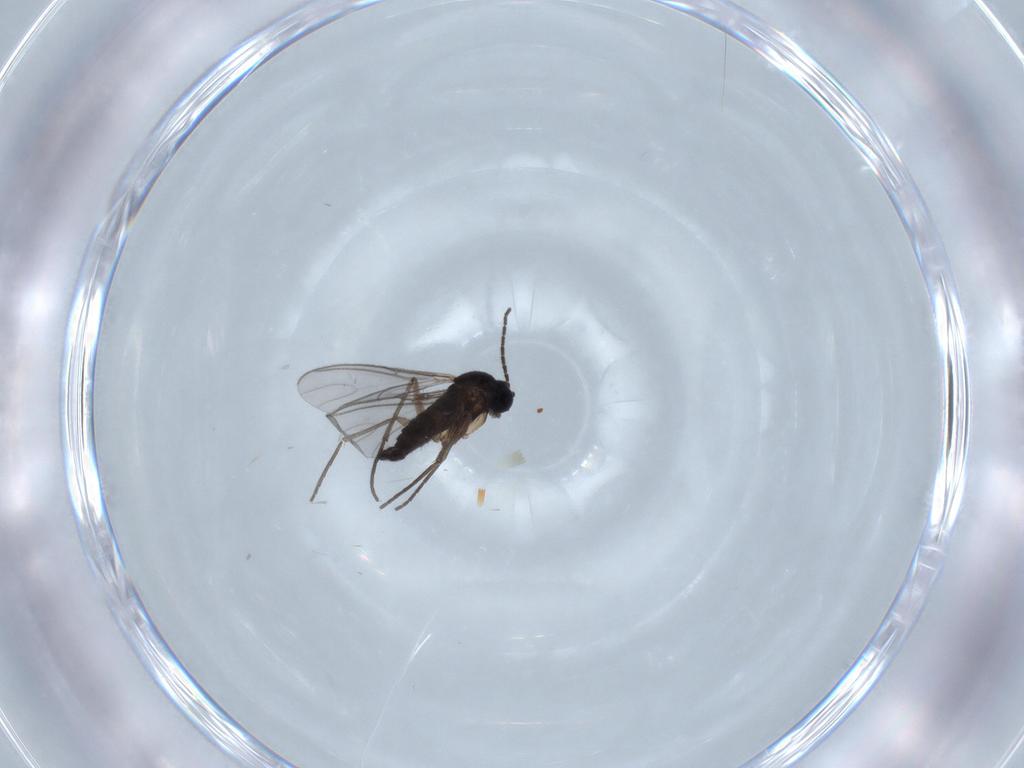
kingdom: Animalia
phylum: Arthropoda
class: Insecta
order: Diptera
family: Sciaridae
